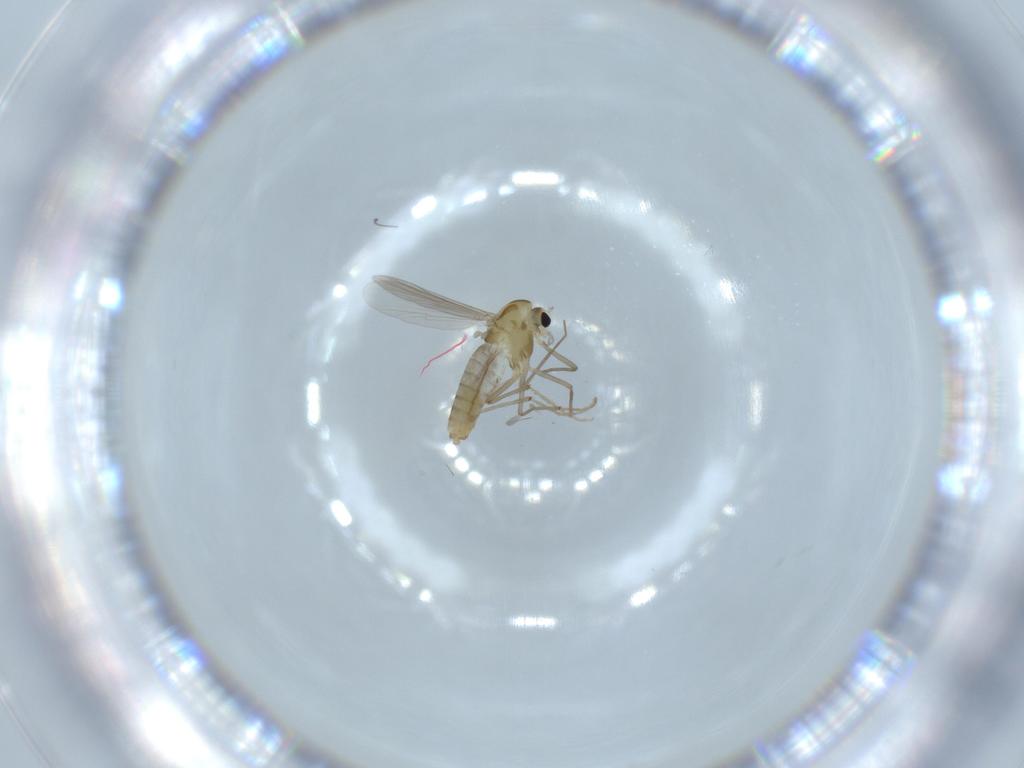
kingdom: Animalia
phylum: Arthropoda
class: Insecta
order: Diptera
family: Chironomidae
